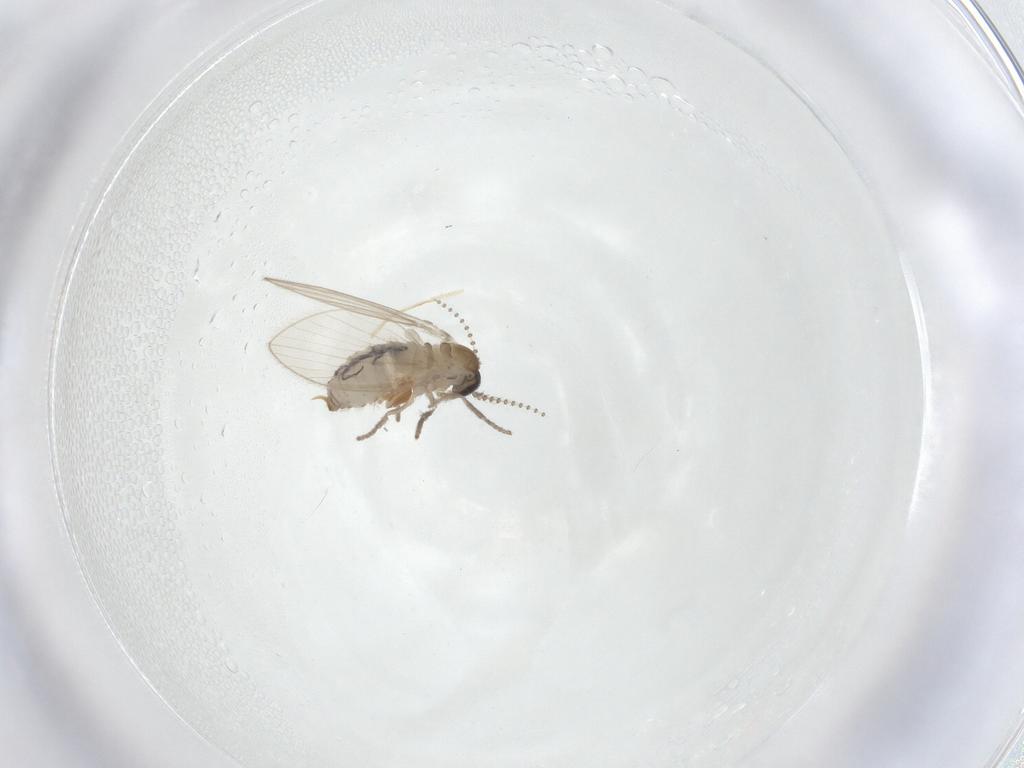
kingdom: Animalia
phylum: Arthropoda
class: Insecta
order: Diptera
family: Psychodidae
